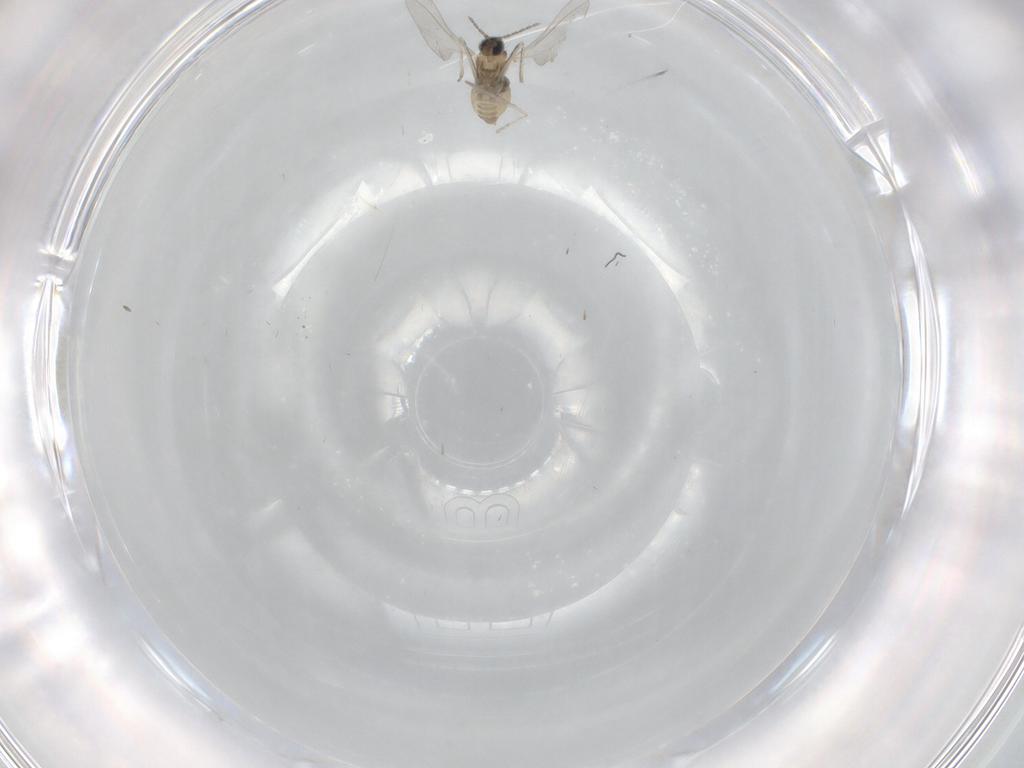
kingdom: Animalia
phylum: Arthropoda
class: Insecta
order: Diptera
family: Cecidomyiidae
